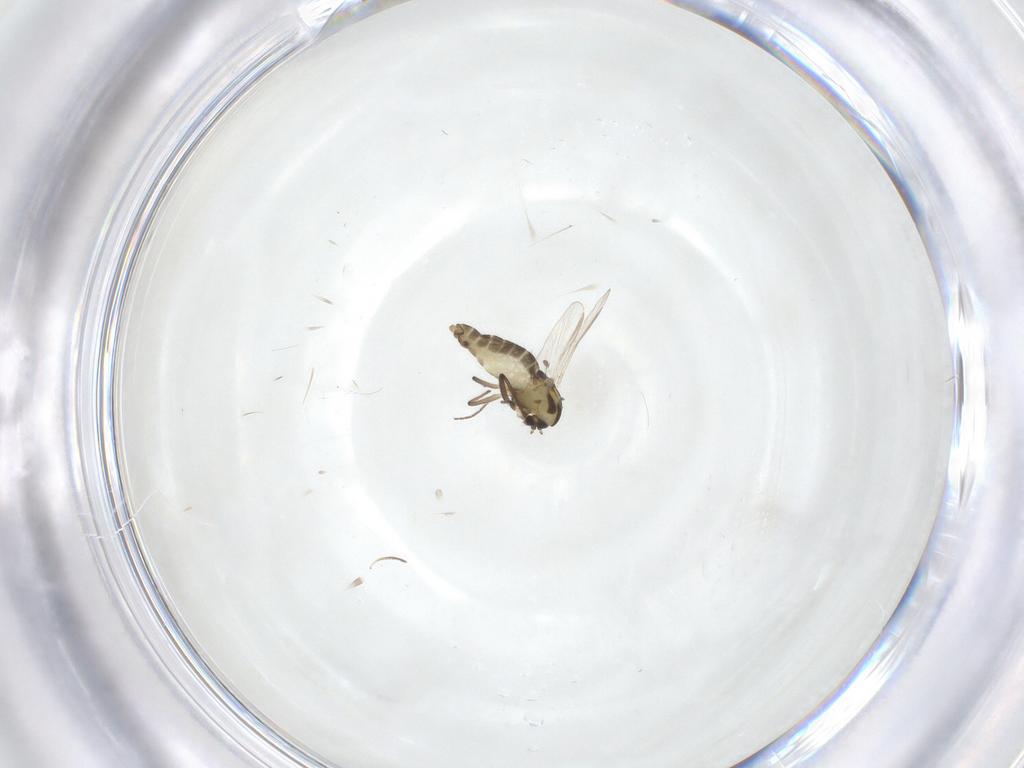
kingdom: Animalia
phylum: Arthropoda
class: Insecta
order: Diptera
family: Chironomidae
